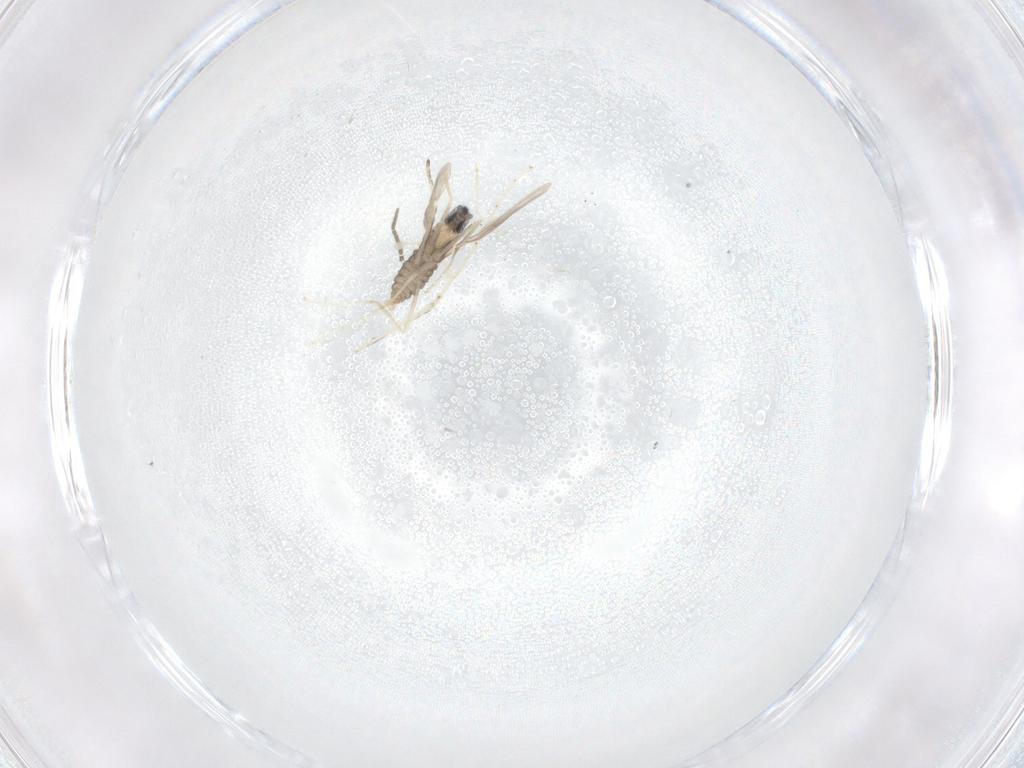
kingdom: Animalia
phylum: Arthropoda
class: Insecta
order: Diptera
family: Cecidomyiidae
